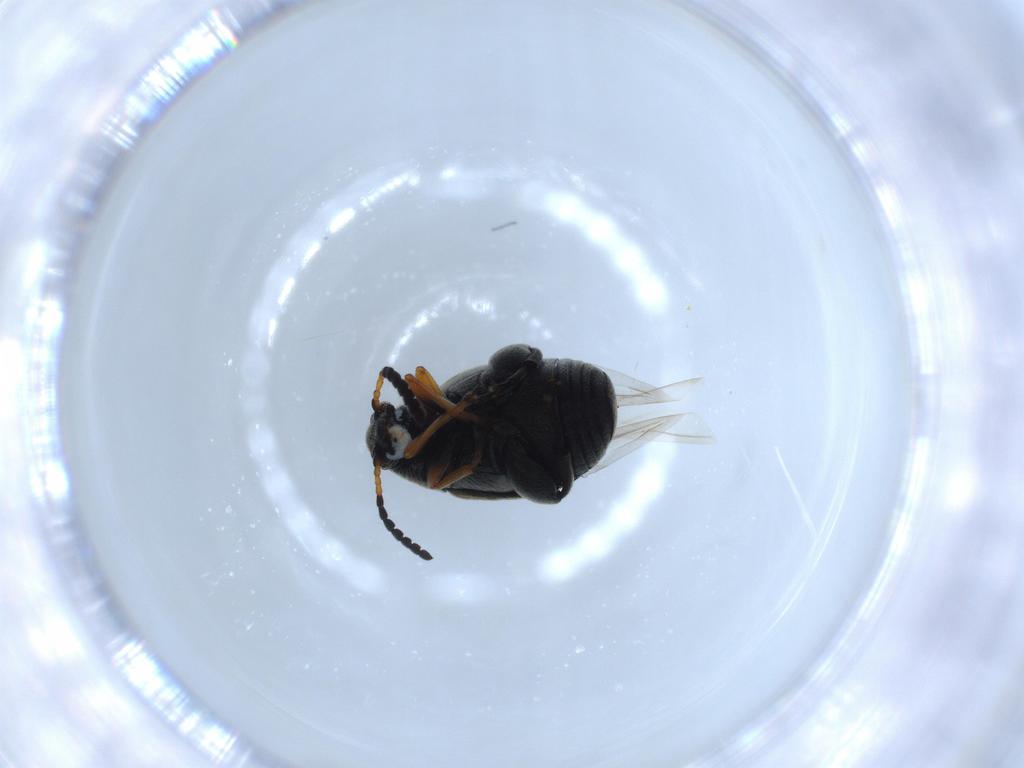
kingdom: Animalia
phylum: Arthropoda
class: Insecta
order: Coleoptera
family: Chrysomelidae
